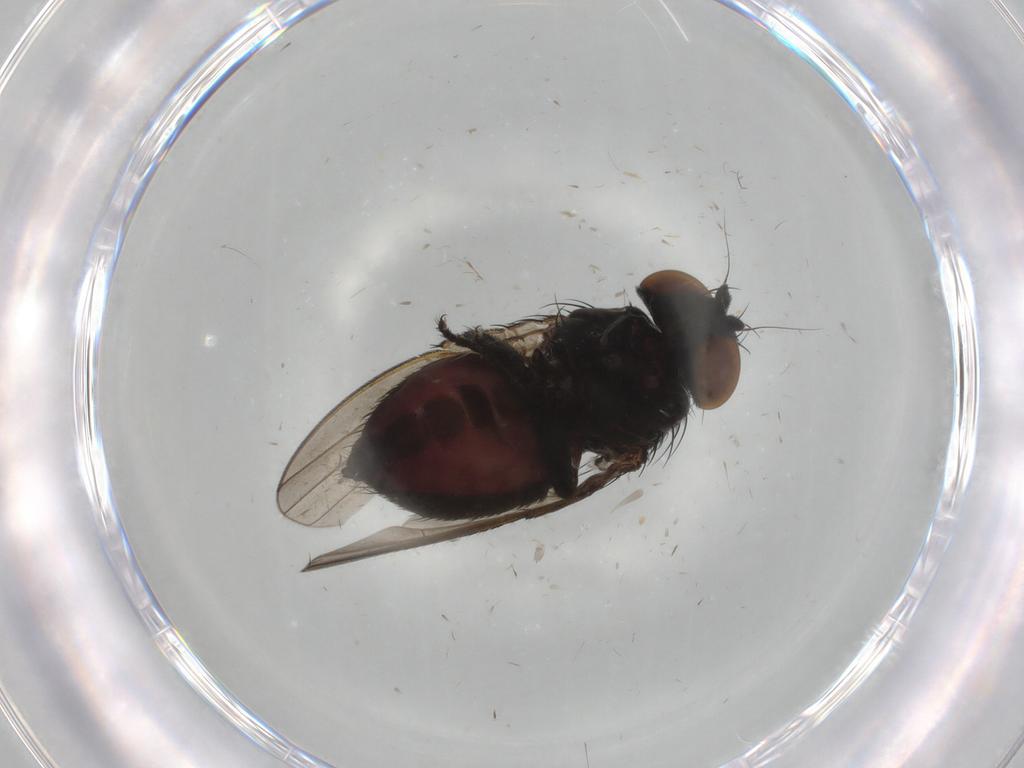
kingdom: Animalia
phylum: Arthropoda
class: Insecta
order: Diptera
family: Milichiidae
